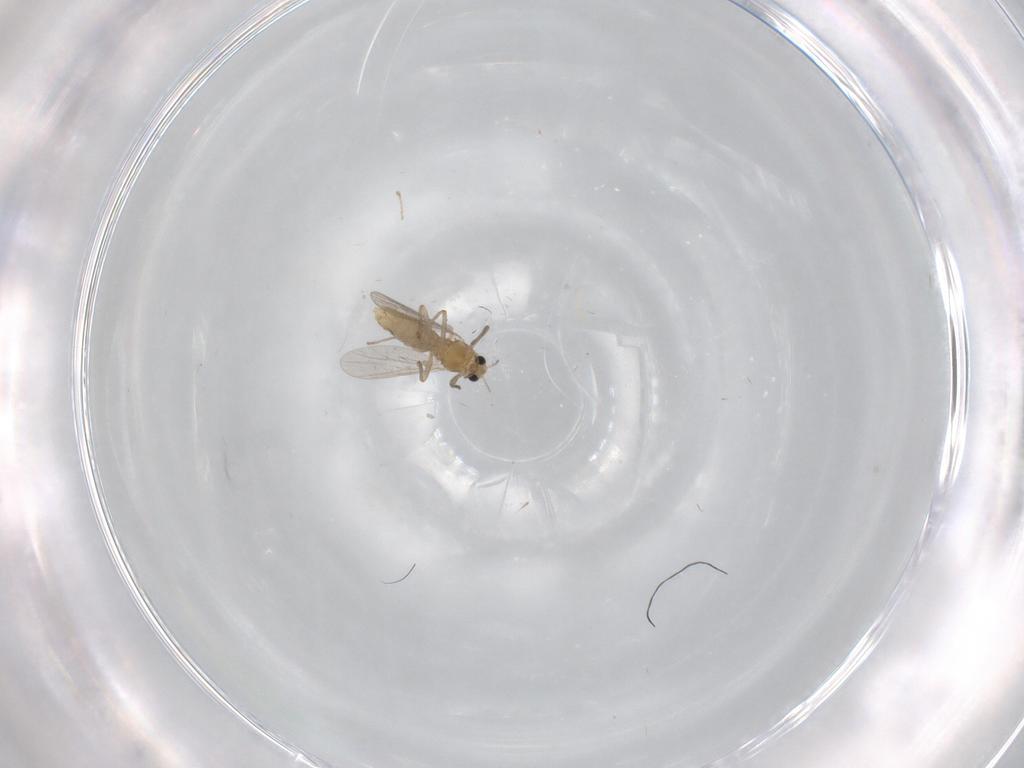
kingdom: Animalia
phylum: Arthropoda
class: Insecta
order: Diptera
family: Chironomidae
